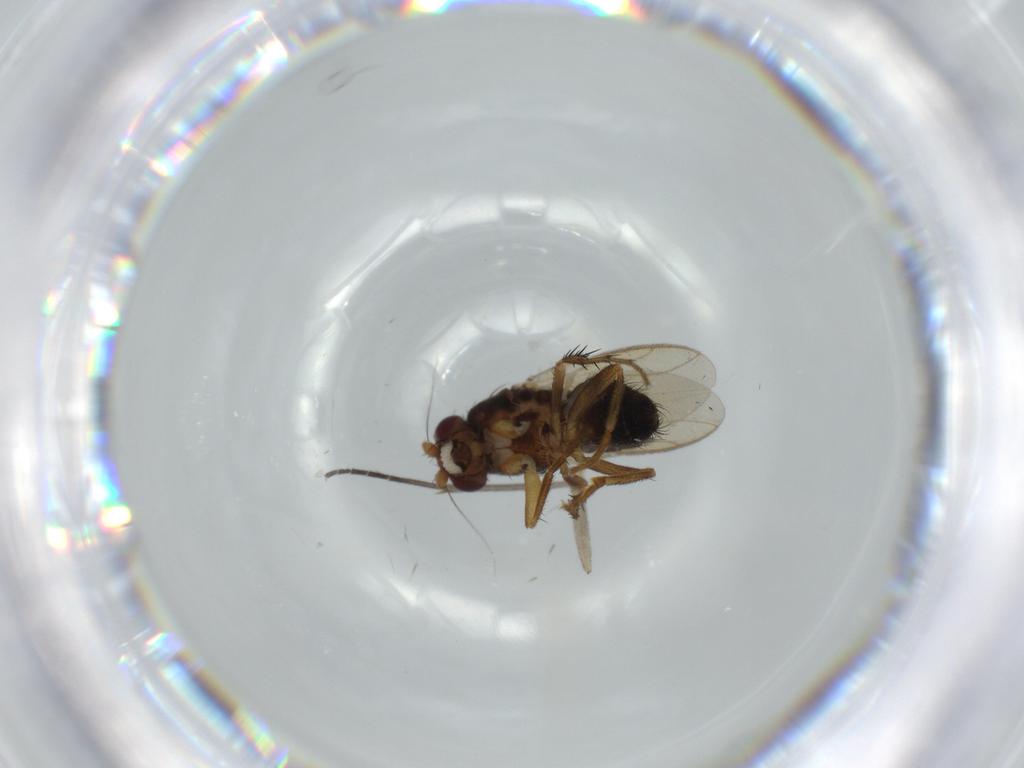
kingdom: Animalia
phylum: Arthropoda
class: Insecta
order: Diptera
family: Sphaeroceridae
